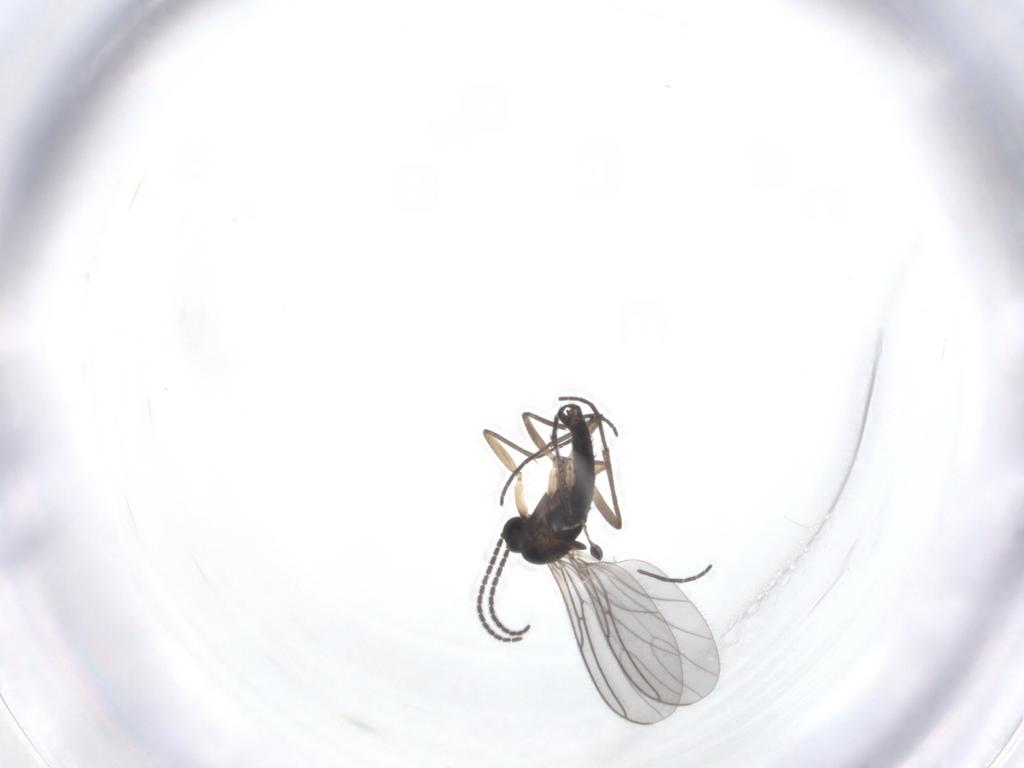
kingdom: Animalia
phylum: Arthropoda
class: Insecta
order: Diptera
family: Sciaridae
